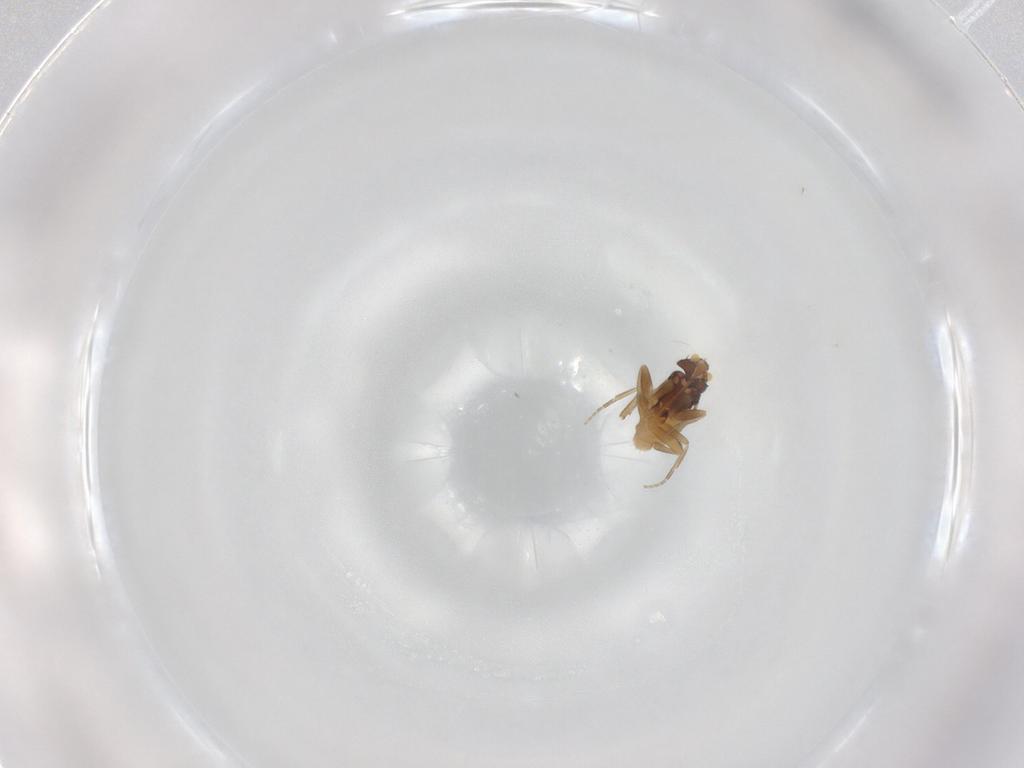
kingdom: Animalia
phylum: Arthropoda
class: Insecta
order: Diptera
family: Phoridae
